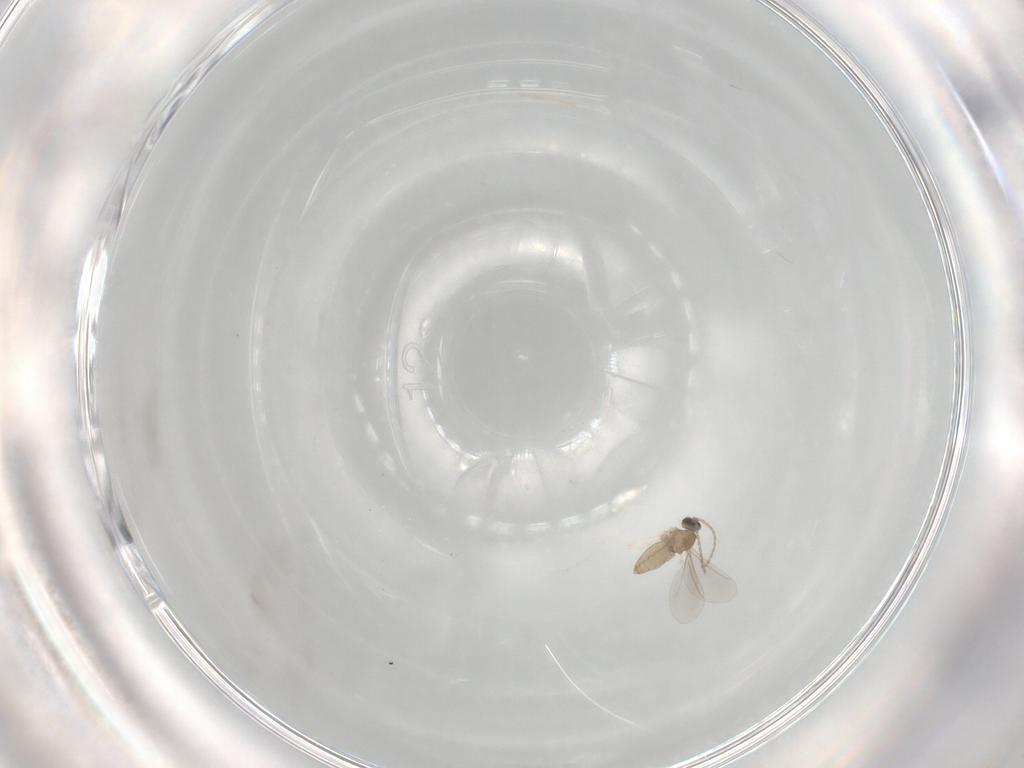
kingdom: Animalia
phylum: Arthropoda
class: Insecta
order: Diptera
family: Cecidomyiidae
